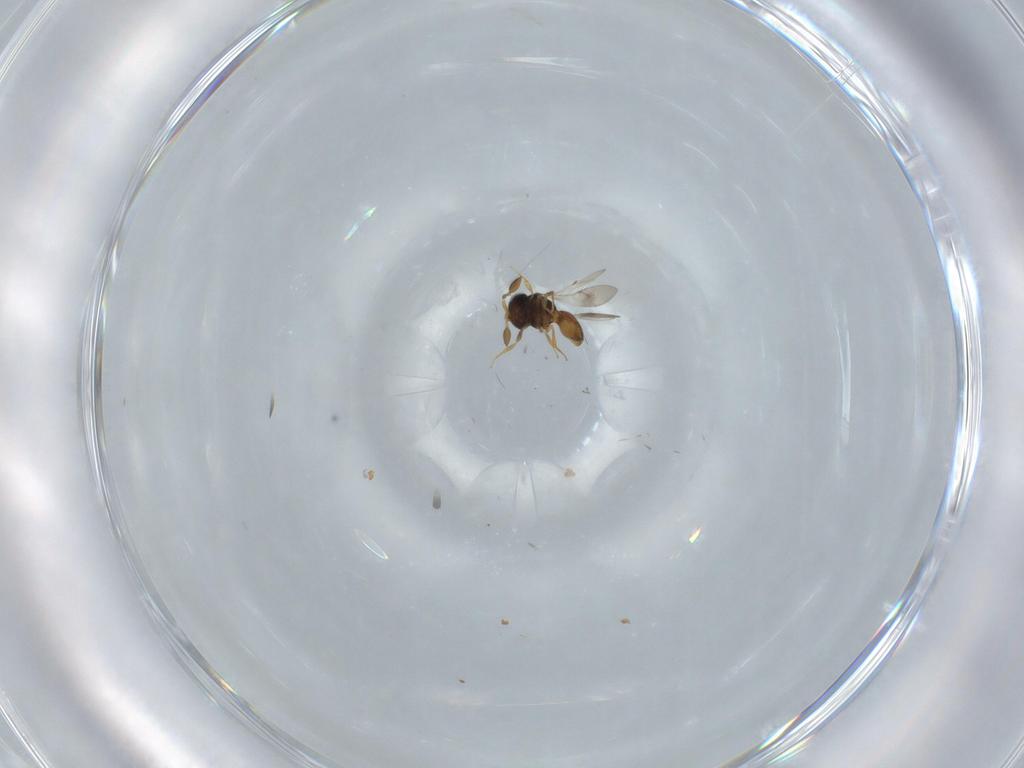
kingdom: Animalia
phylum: Arthropoda
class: Insecta
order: Hymenoptera
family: Scelionidae
